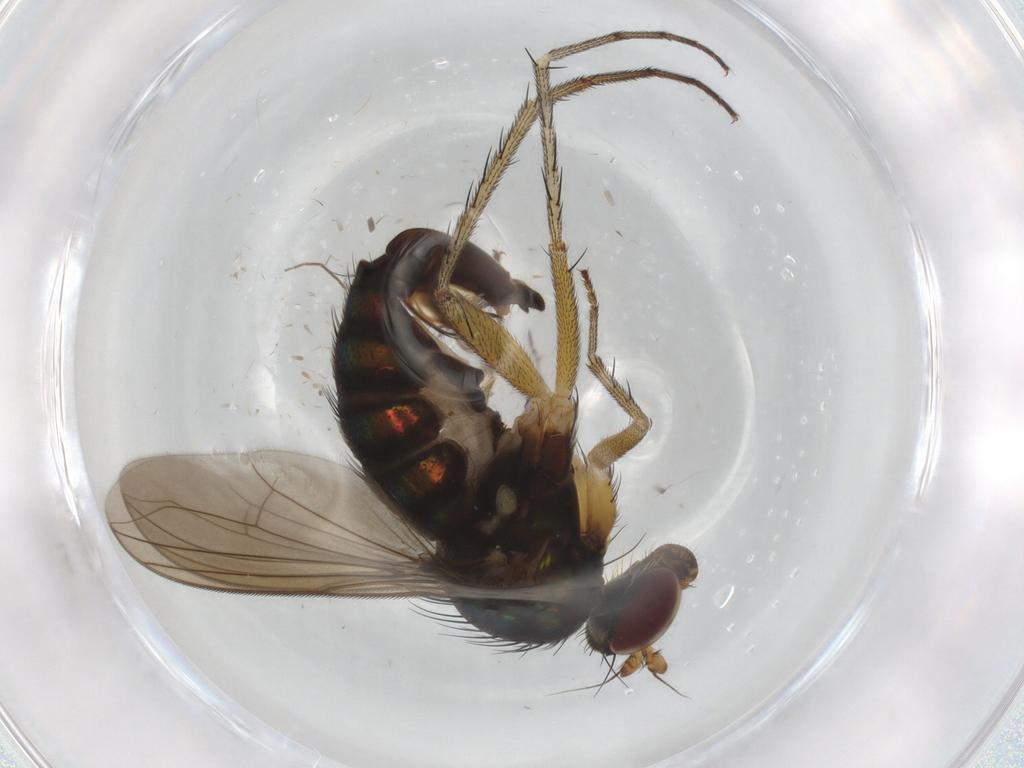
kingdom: Animalia
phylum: Arthropoda
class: Insecta
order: Diptera
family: Dolichopodidae
